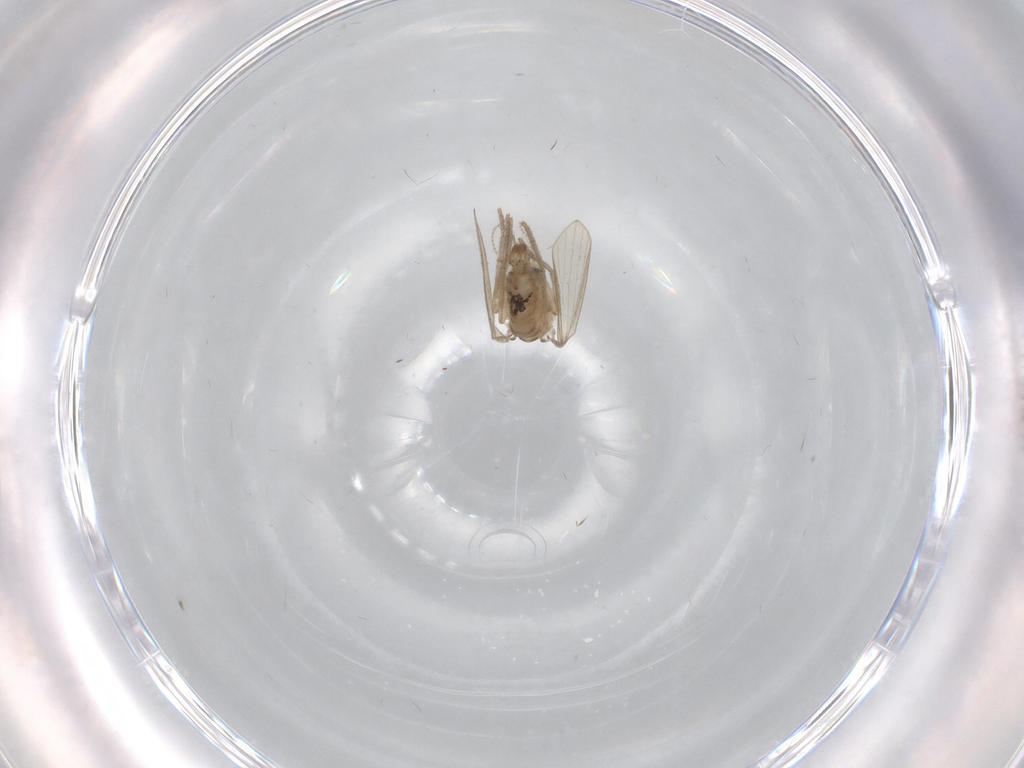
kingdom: Animalia
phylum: Arthropoda
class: Insecta
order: Diptera
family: Psychodidae
